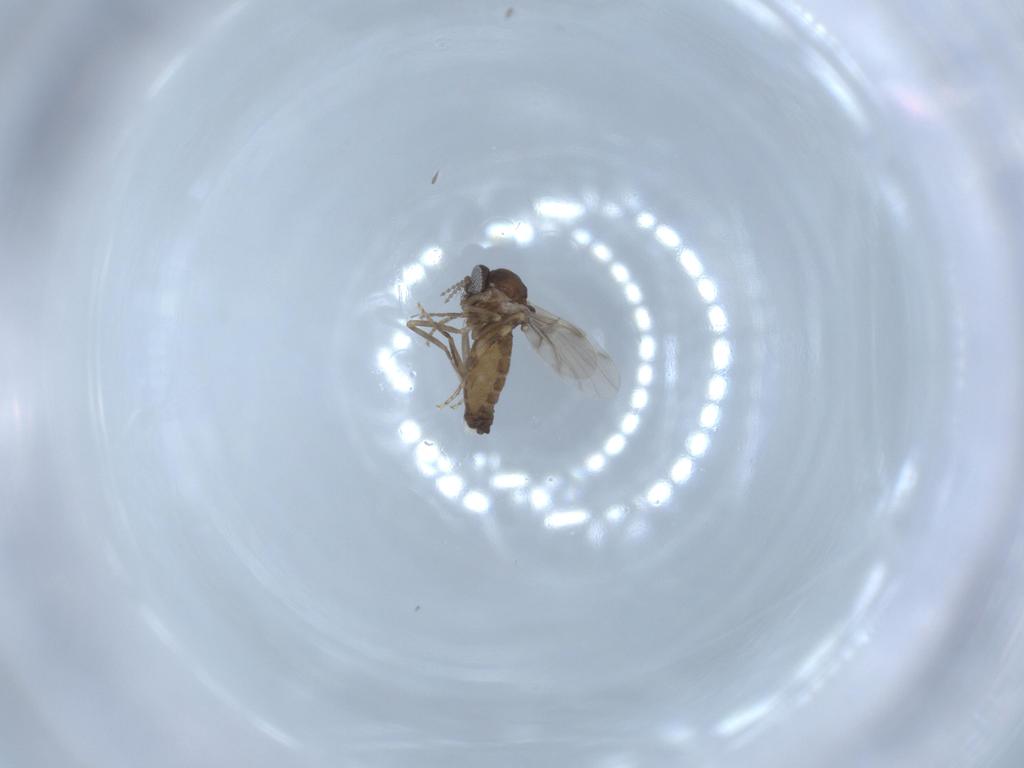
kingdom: Animalia
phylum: Arthropoda
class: Insecta
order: Diptera
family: Ceratopogonidae
